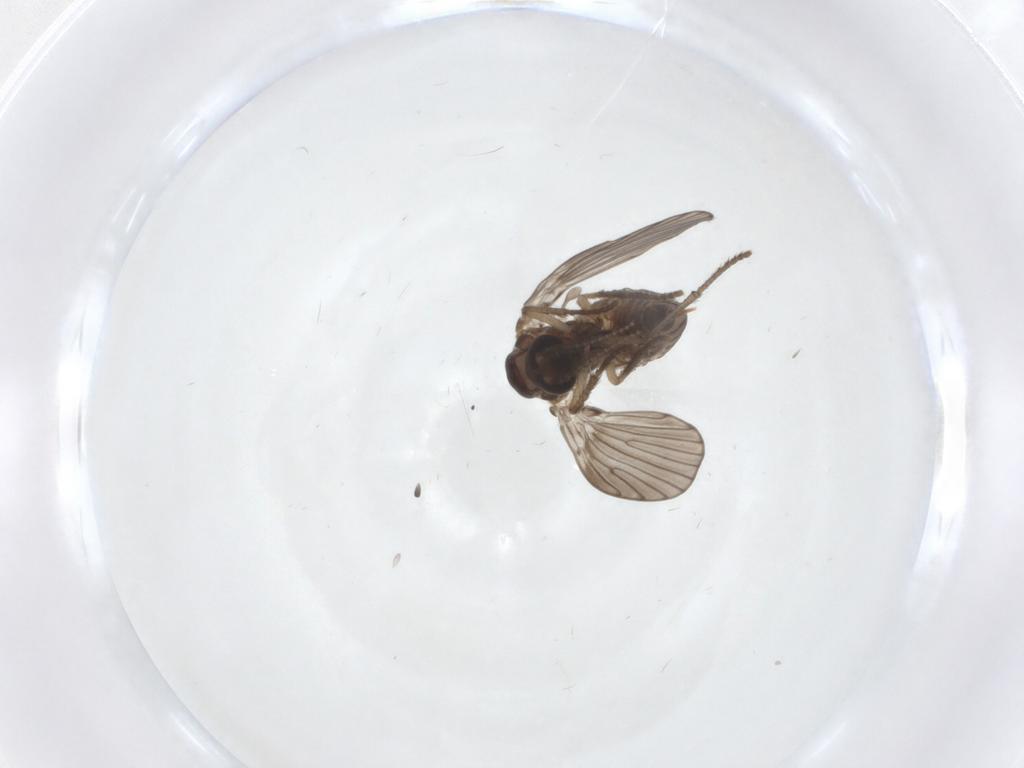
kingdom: Animalia
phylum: Arthropoda
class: Insecta
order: Diptera
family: Psychodidae
